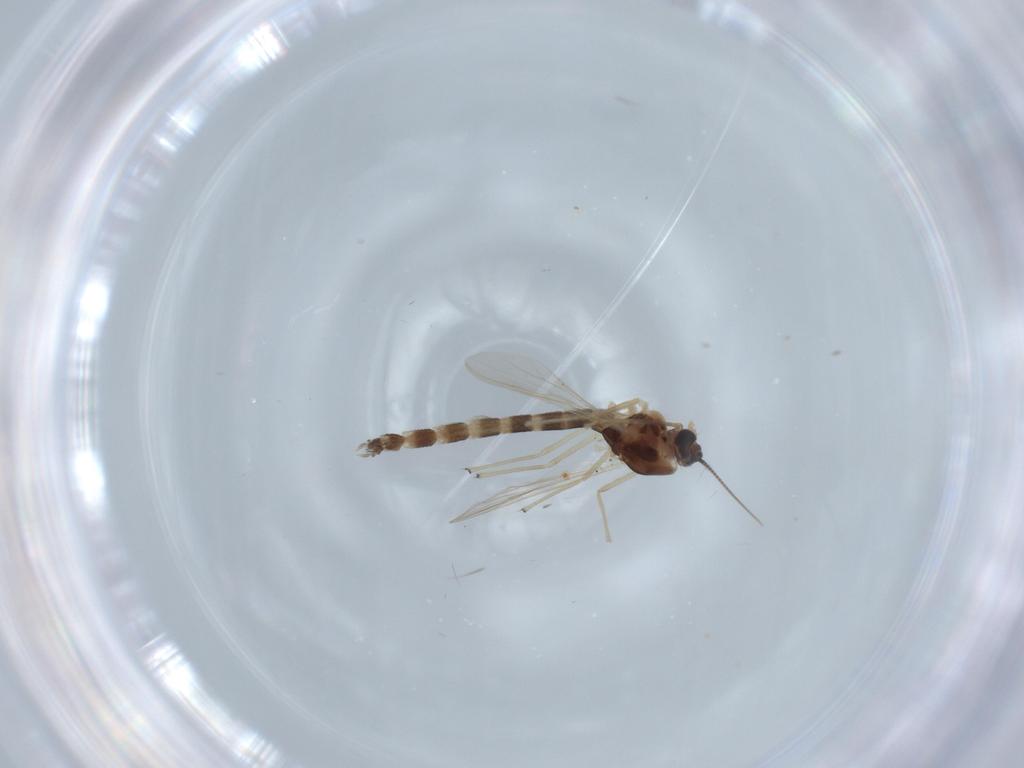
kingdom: Animalia
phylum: Arthropoda
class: Insecta
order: Diptera
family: Chironomidae
